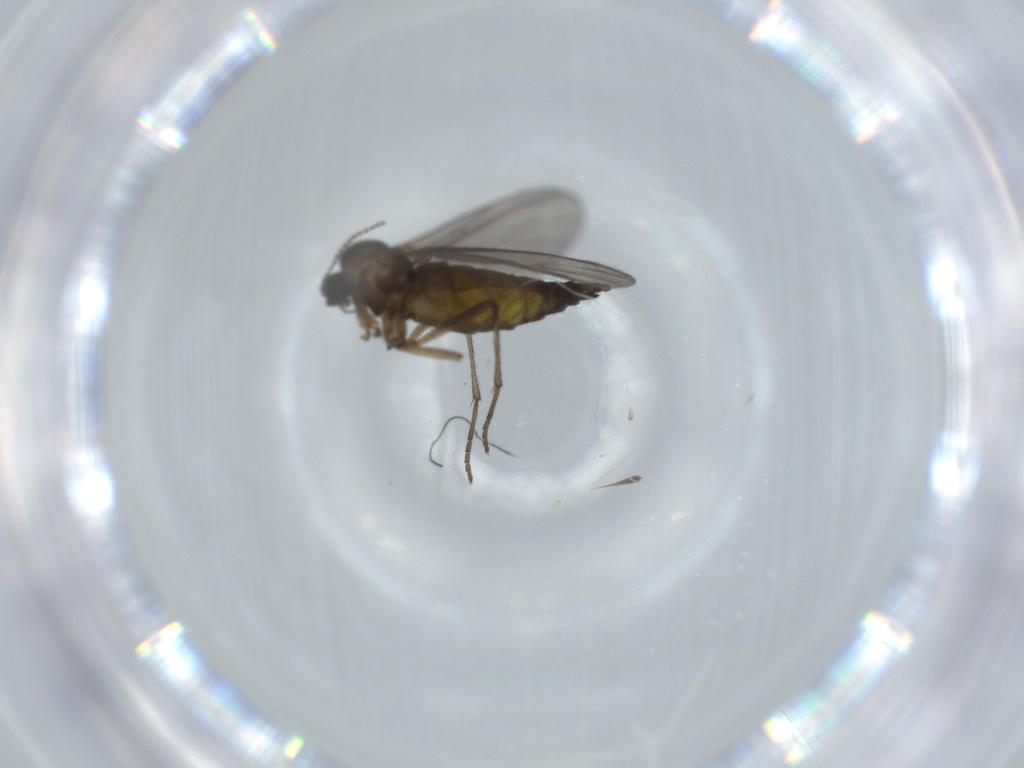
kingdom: Animalia
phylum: Arthropoda
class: Insecta
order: Diptera
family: Sciaridae
